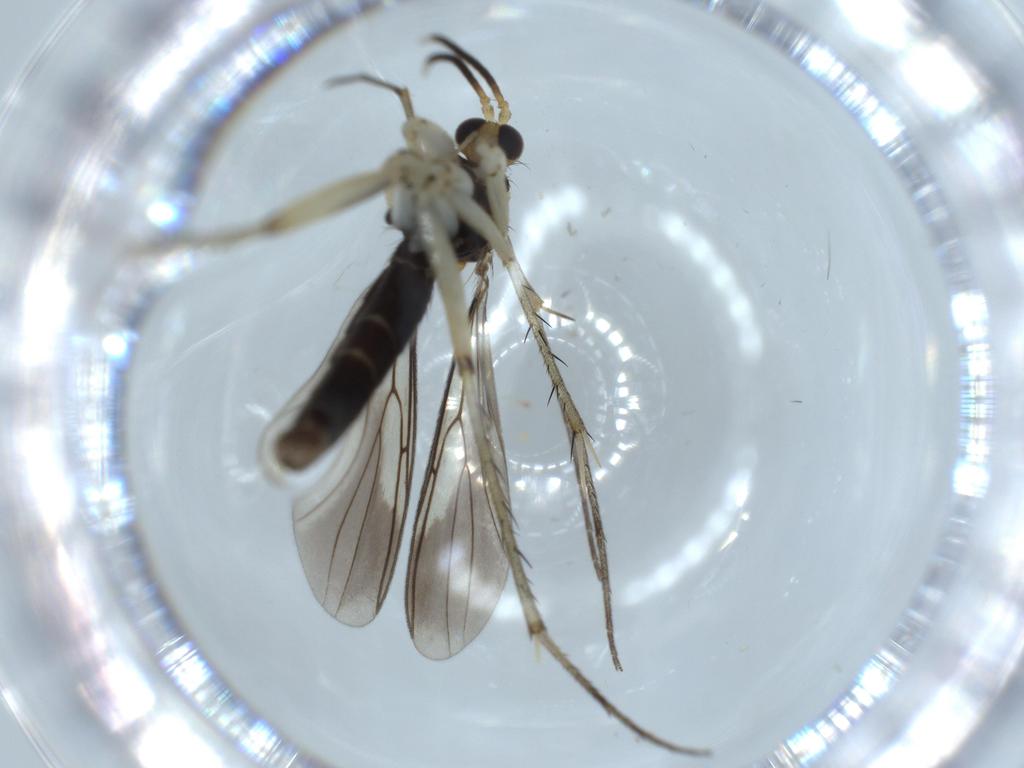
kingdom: Animalia
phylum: Arthropoda
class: Insecta
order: Diptera
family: Mycetophilidae
